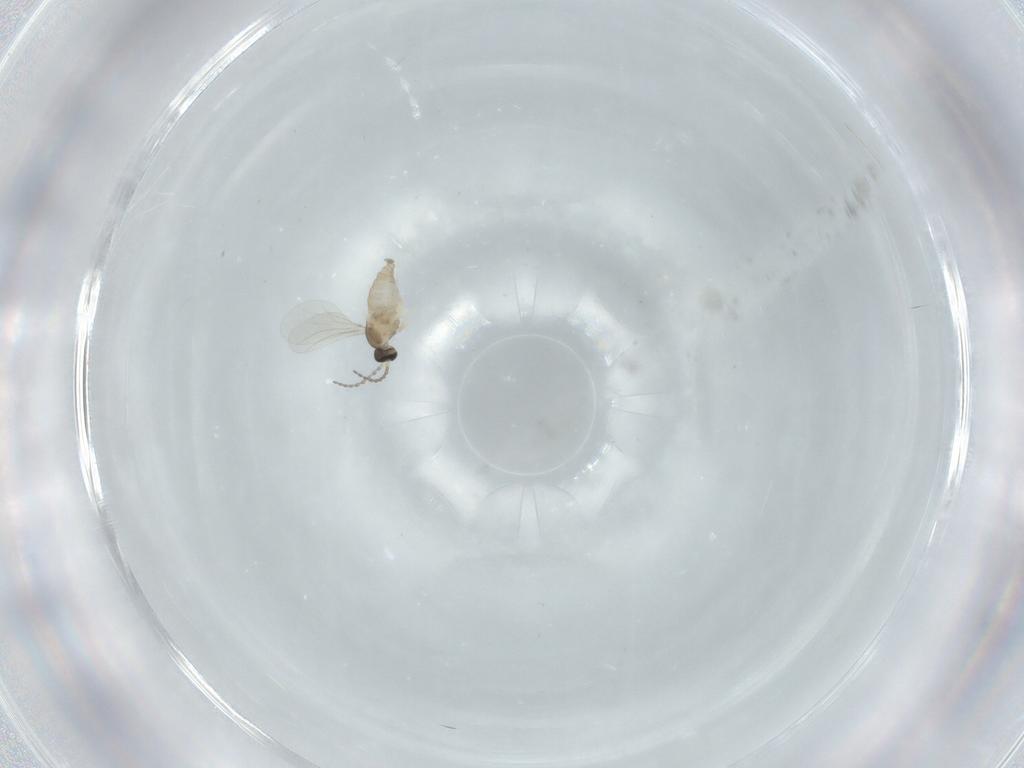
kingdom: Animalia
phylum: Arthropoda
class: Insecta
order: Diptera
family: Cecidomyiidae
